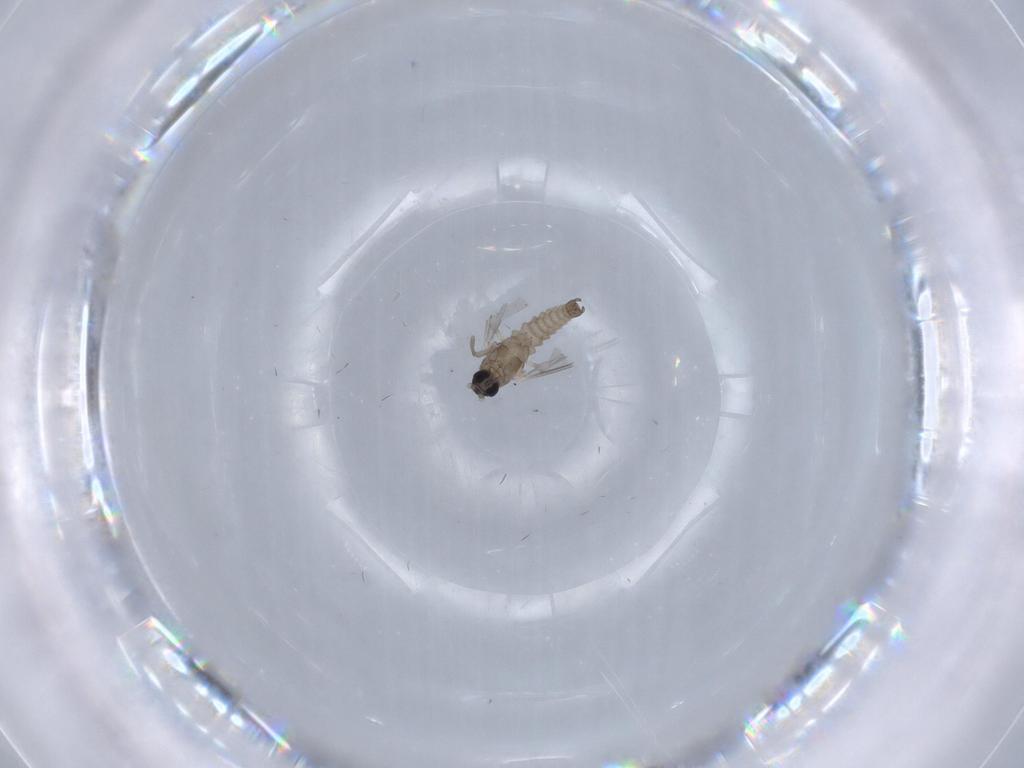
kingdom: Animalia
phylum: Arthropoda
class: Insecta
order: Diptera
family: Cecidomyiidae
